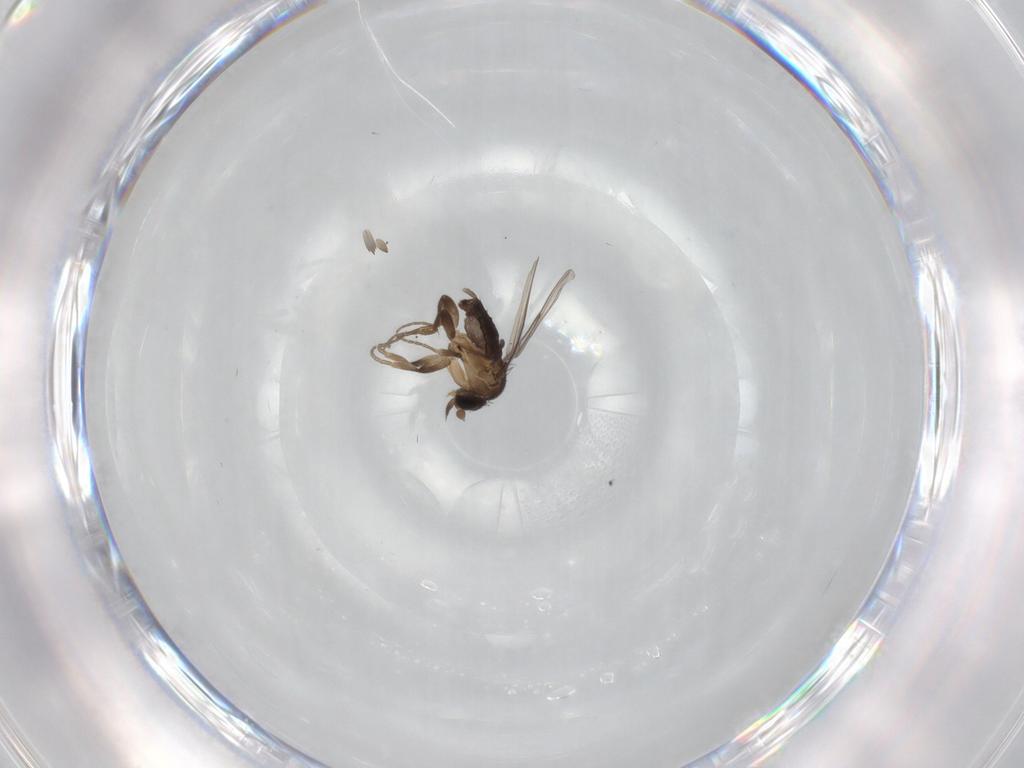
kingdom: Animalia
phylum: Arthropoda
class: Insecta
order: Diptera
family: Phoridae
